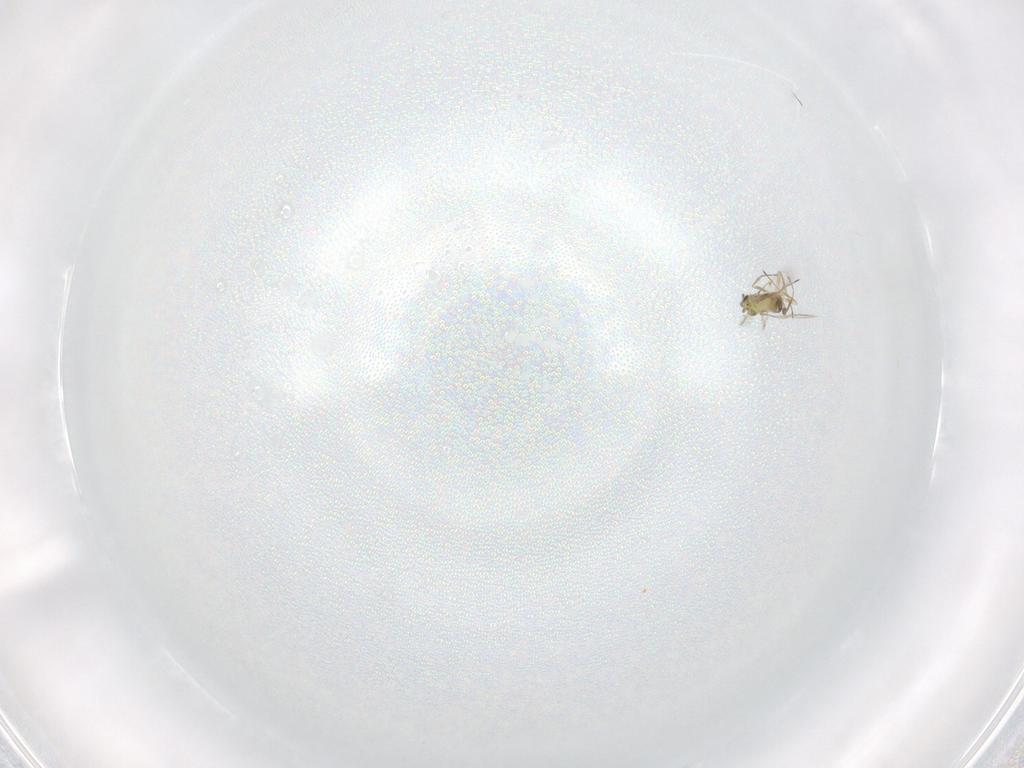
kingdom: Animalia
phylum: Arthropoda
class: Insecta
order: Hymenoptera
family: Trichogrammatidae
